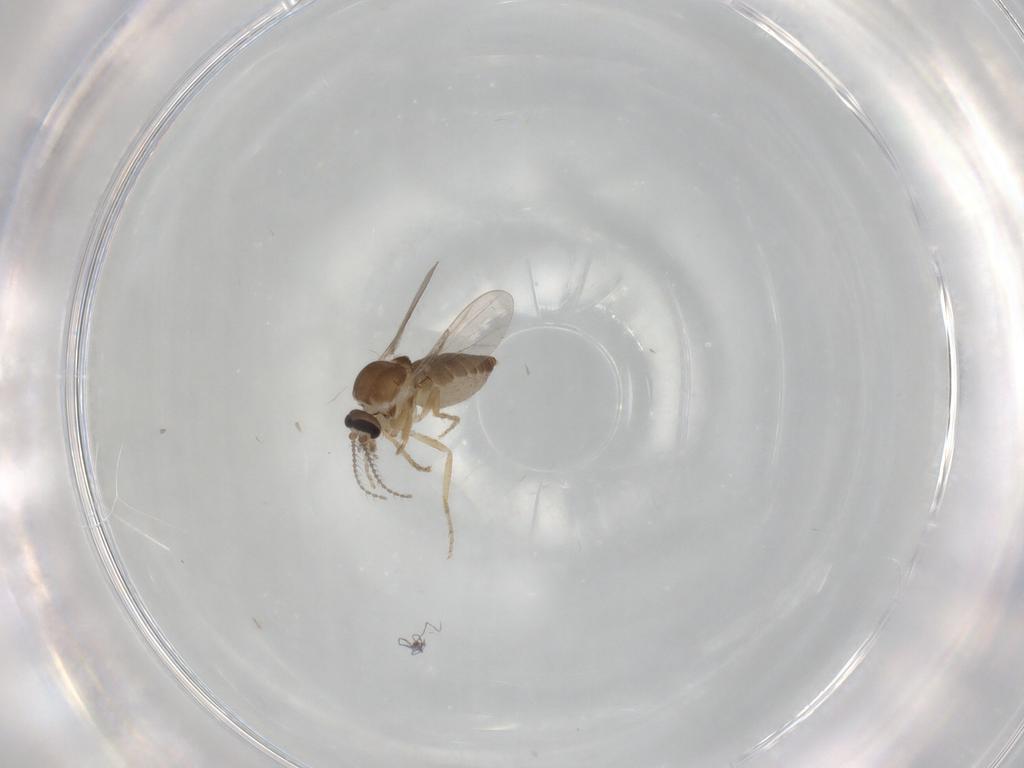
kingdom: Animalia
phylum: Arthropoda
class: Insecta
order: Diptera
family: Ceratopogonidae
